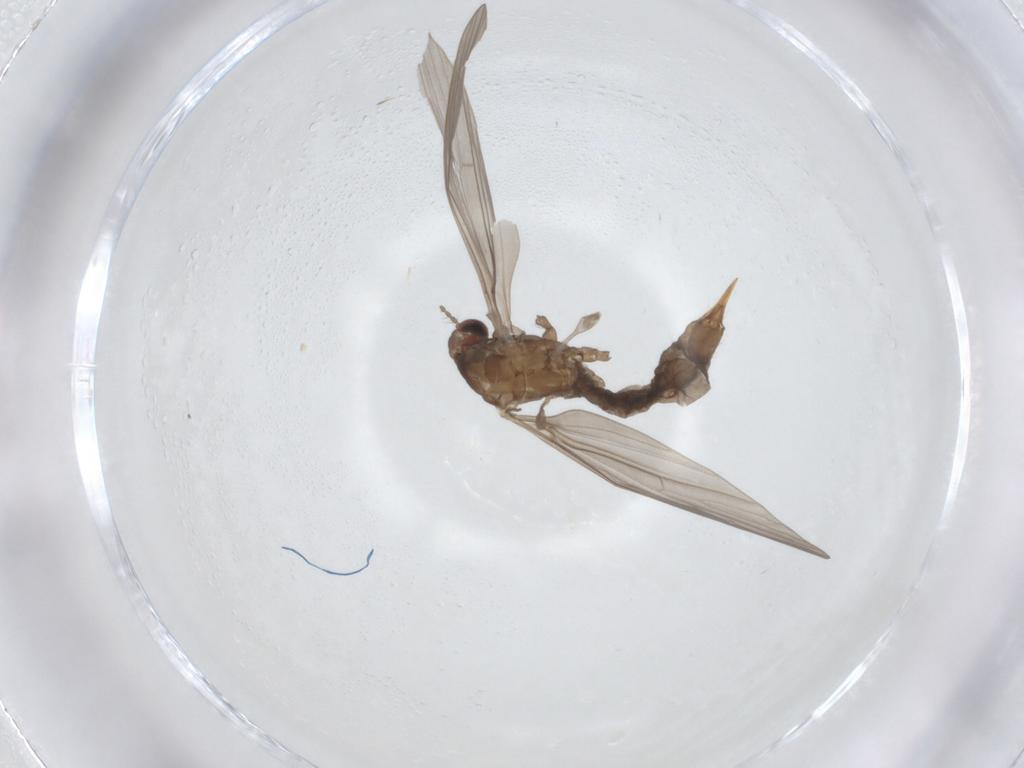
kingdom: Animalia
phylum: Arthropoda
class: Insecta
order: Diptera
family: Limoniidae
